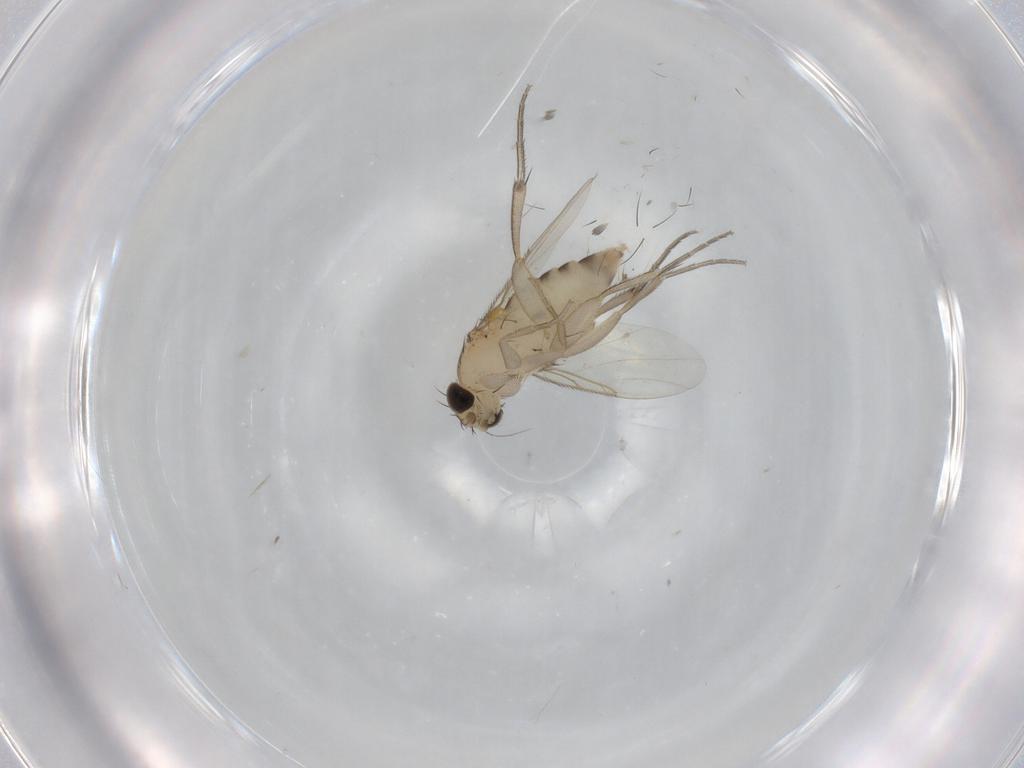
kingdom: Animalia
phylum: Arthropoda
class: Insecta
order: Diptera
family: Phoridae
